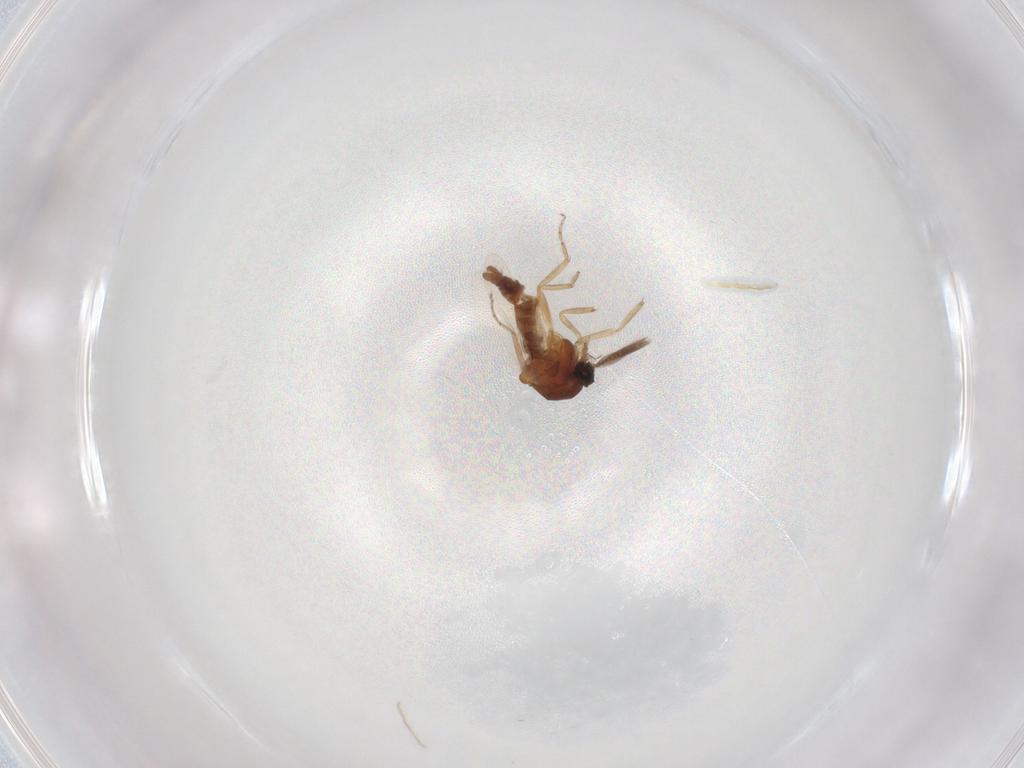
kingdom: Animalia
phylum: Arthropoda
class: Insecta
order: Diptera
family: Ceratopogonidae
